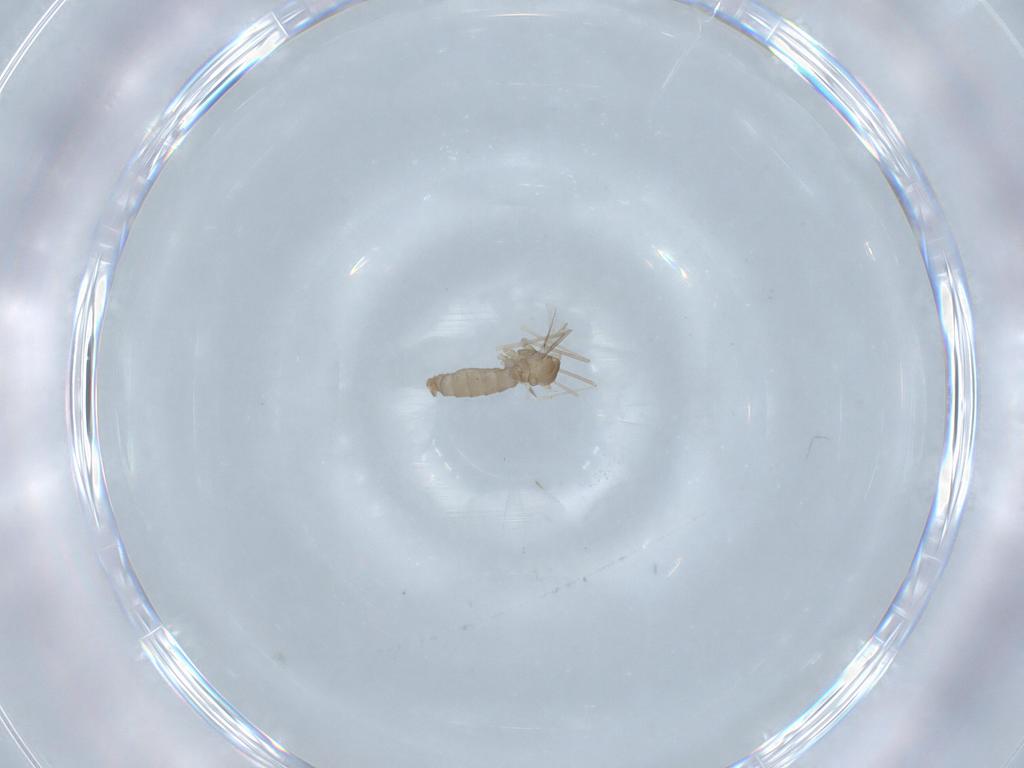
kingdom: Animalia
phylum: Arthropoda
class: Insecta
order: Diptera
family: Cecidomyiidae
